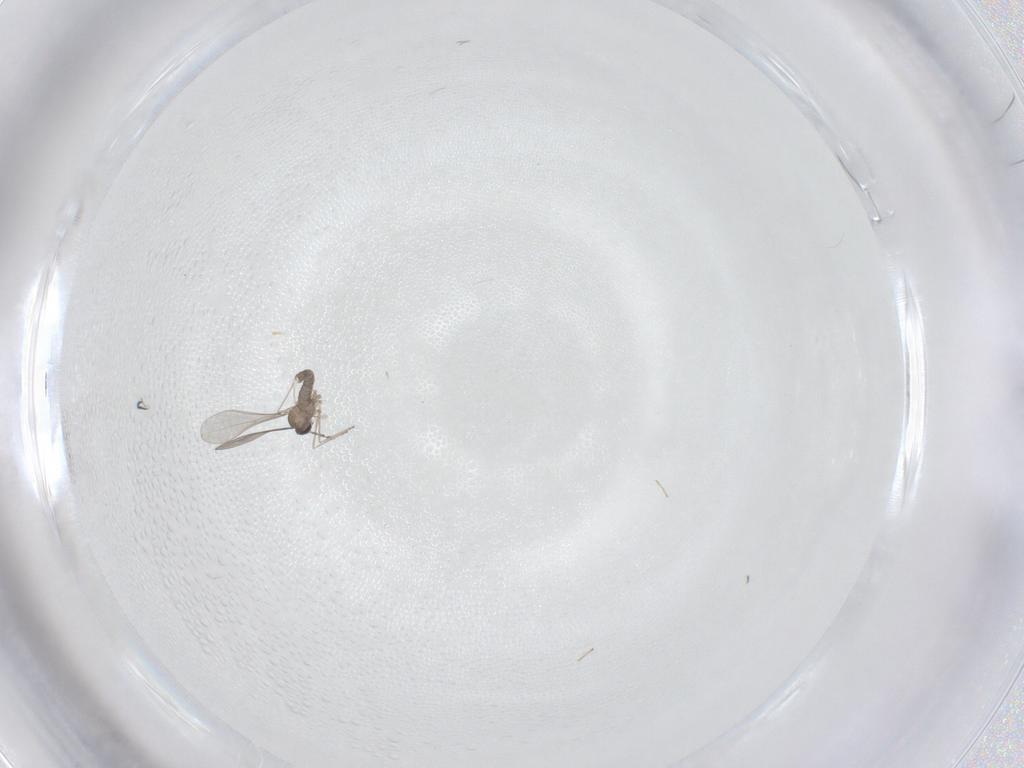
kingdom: Animalia
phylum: Arthropoda
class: Insecta
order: Diptera
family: Cecidomyiidae
